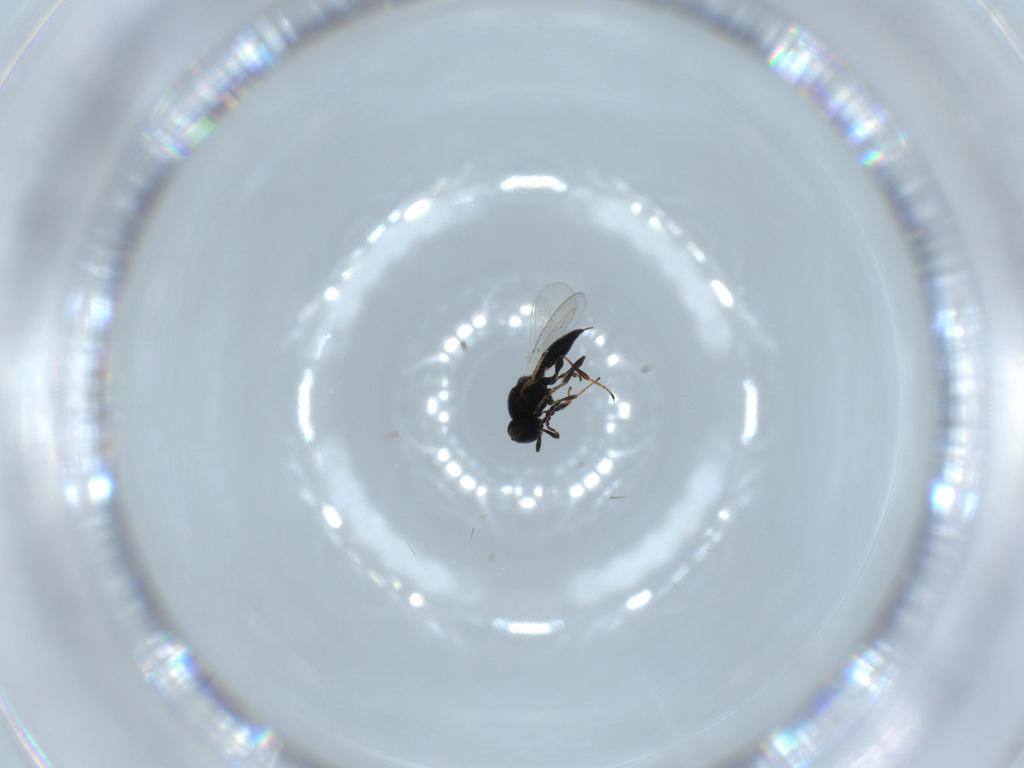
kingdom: Animalia
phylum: Arthropoda
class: Insecta
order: Hymenoptera
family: Platygastridae
